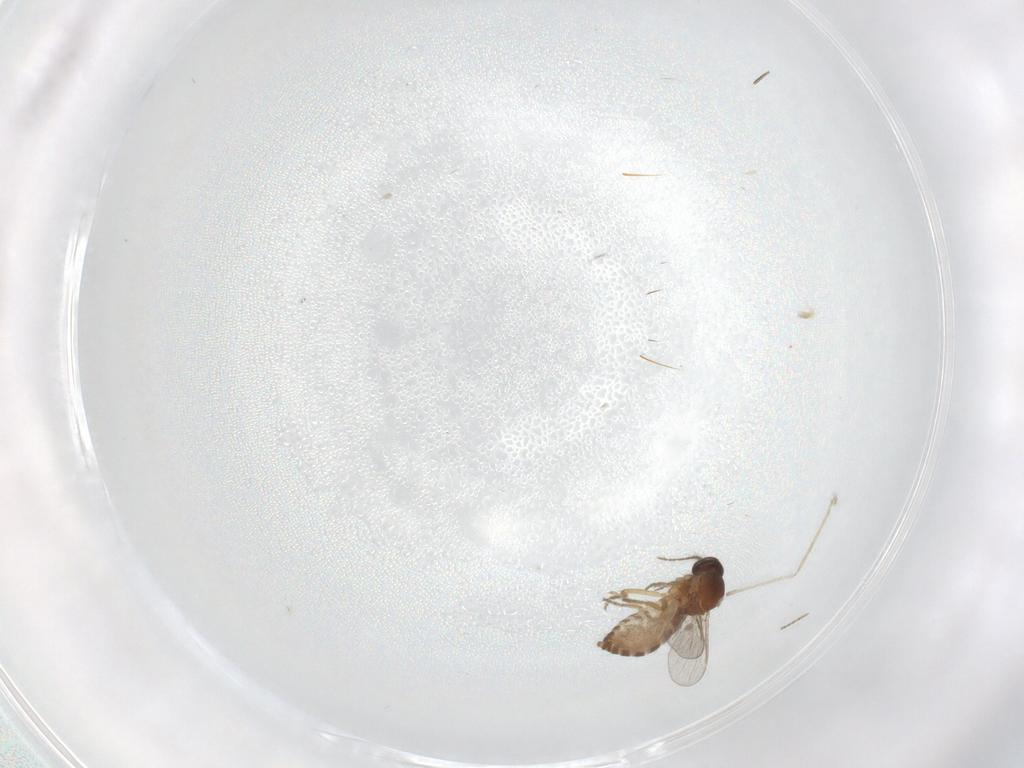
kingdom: Animalia
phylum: Arthropoda
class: Insecta
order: Diptera
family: Ceratopogonidae
